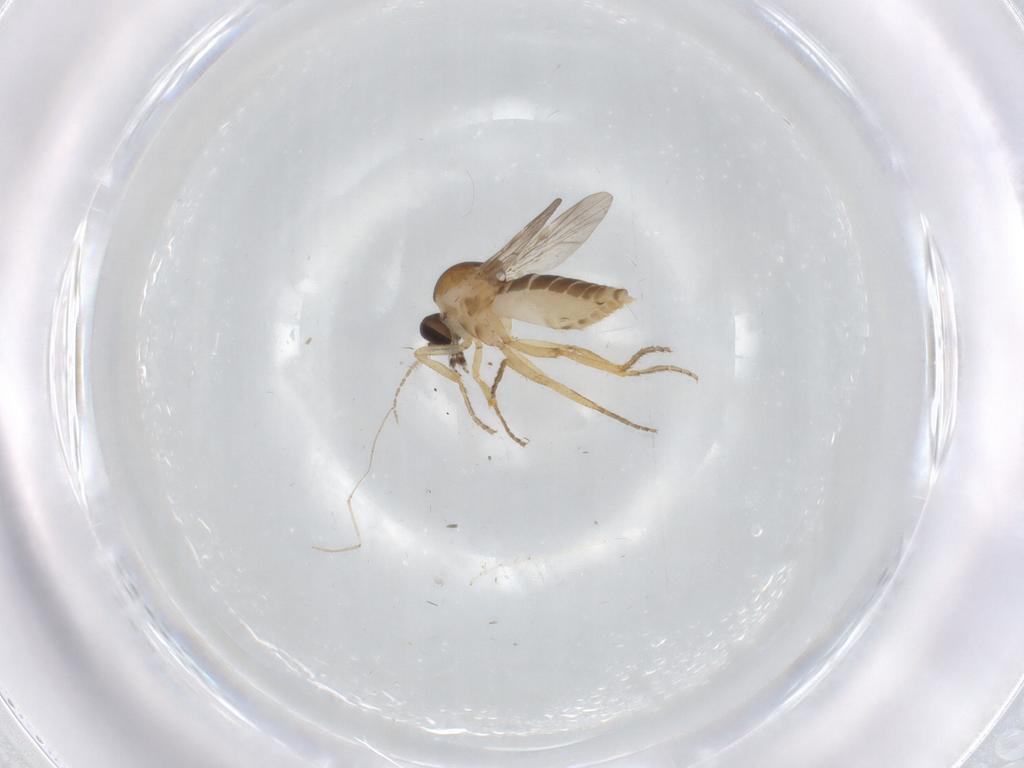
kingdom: Animalia
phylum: Arthropoda
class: Insecta
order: Diptera
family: Cecidomyiidae
